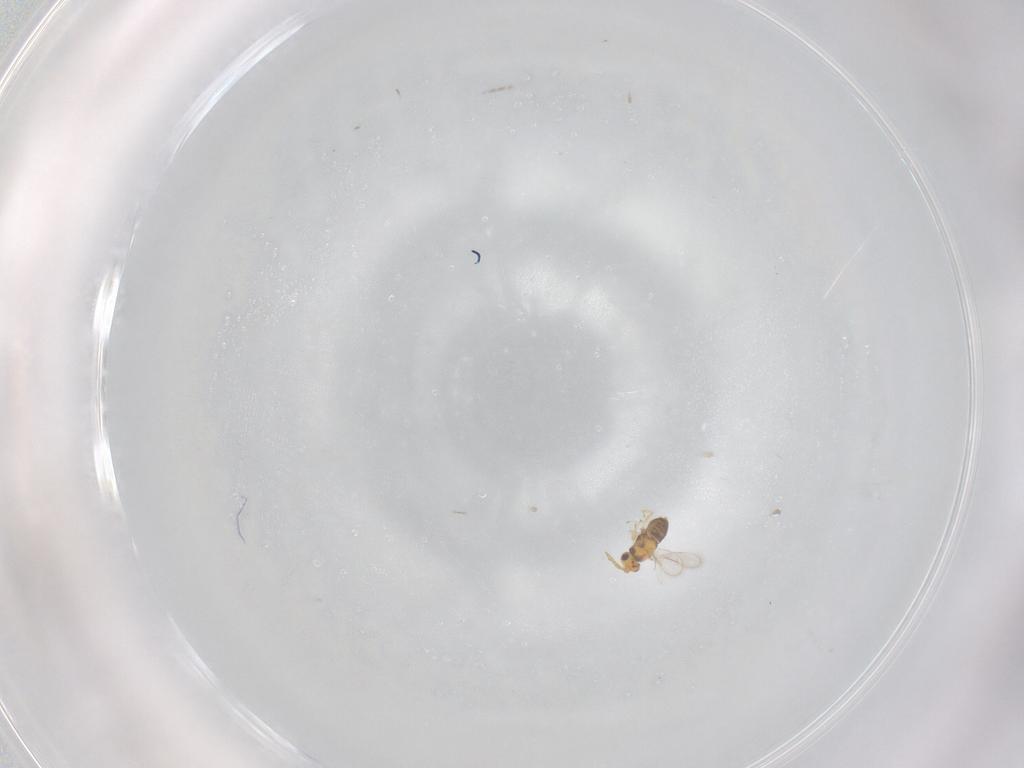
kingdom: Animalia
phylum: Arthropoda
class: Insecta
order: Hymenoptera
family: Aphelinidae
